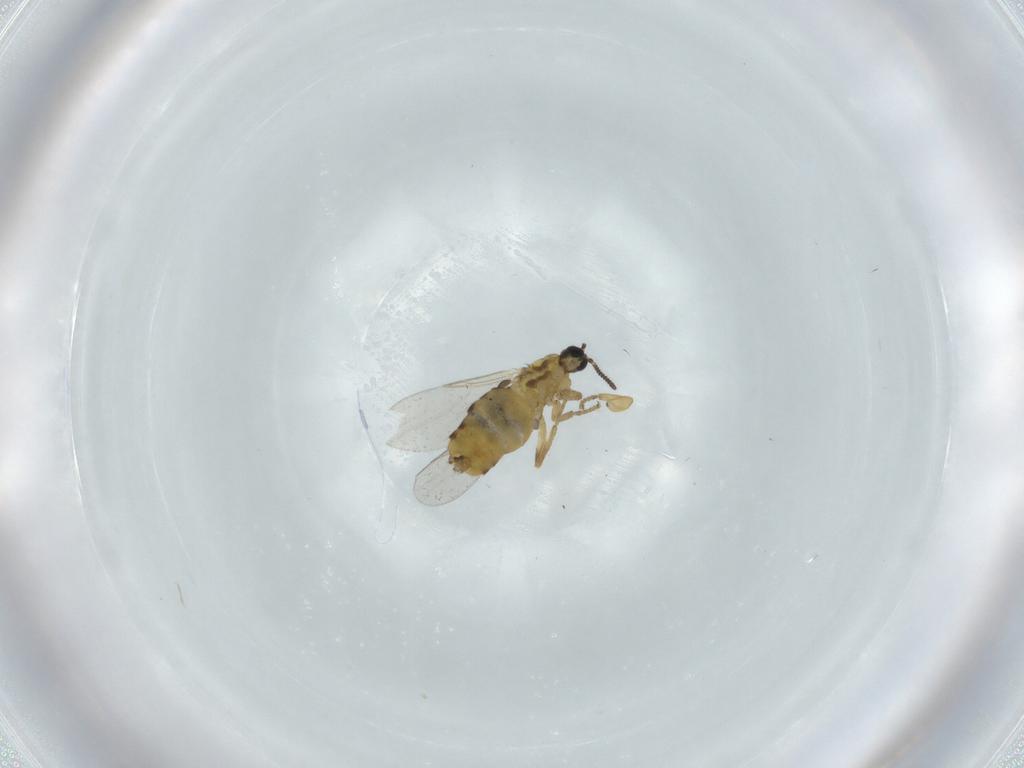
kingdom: Animalia
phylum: Arthropoda
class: Insecta
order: Diptera
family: Scatopsidae
